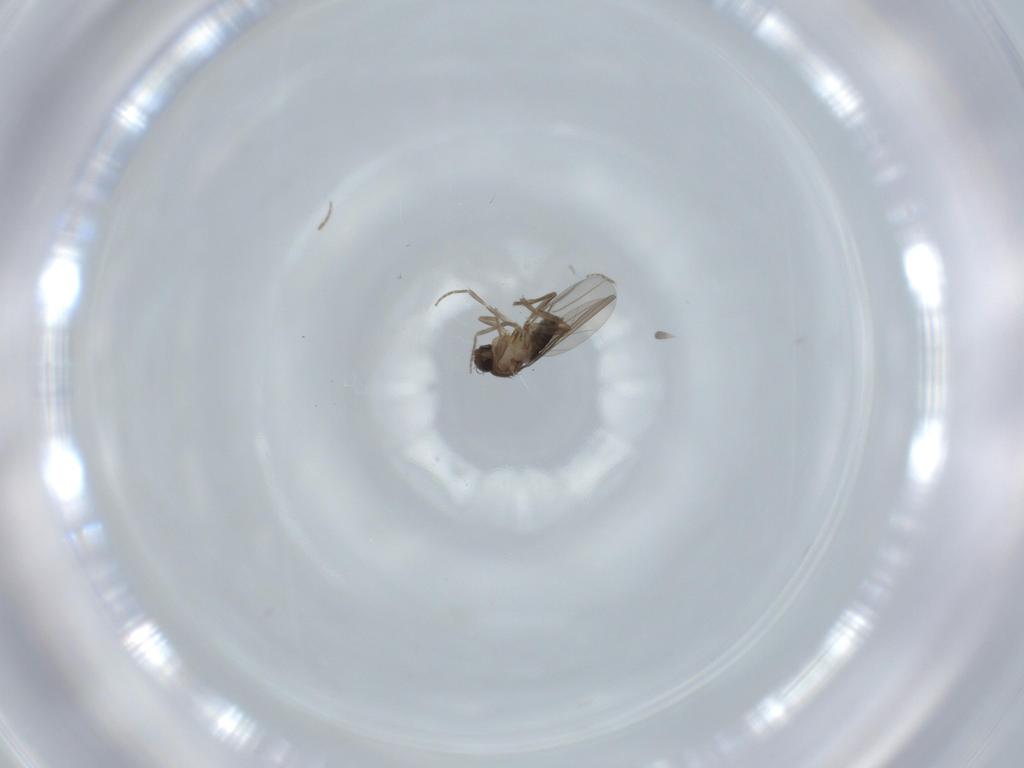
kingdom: Animalia
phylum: Arthropoda
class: Insecta
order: Diptera
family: Phoridae
